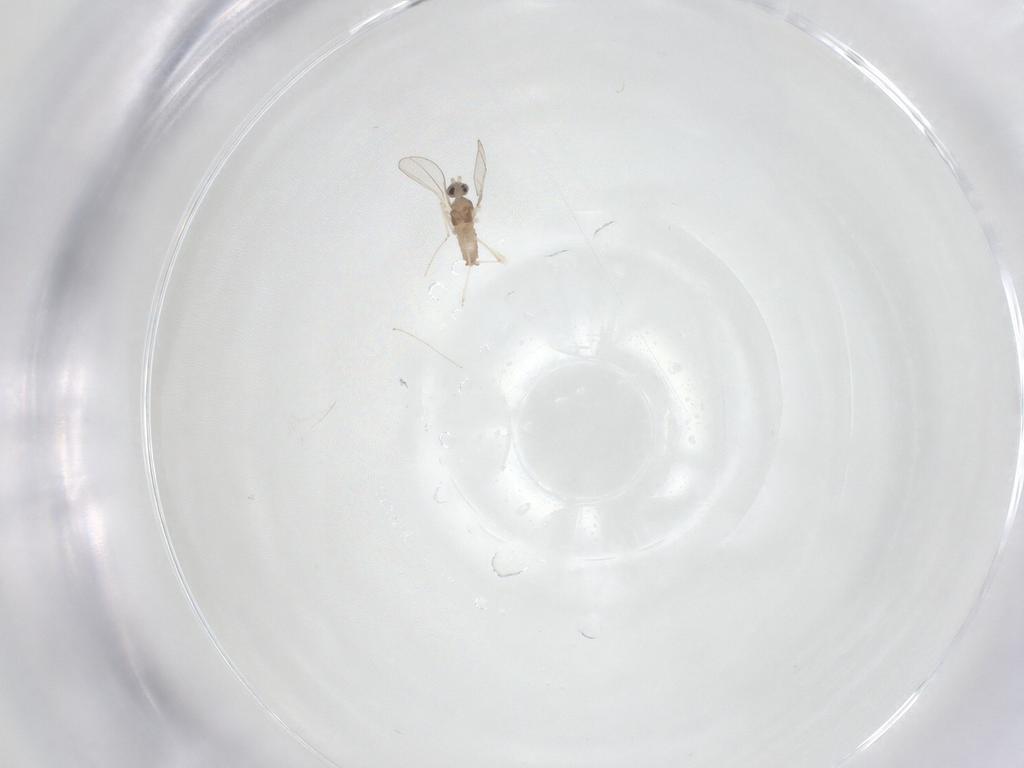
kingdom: Animalia
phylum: Arthropoda
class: Insecta
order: Diptera
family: Cecidomyiidae
